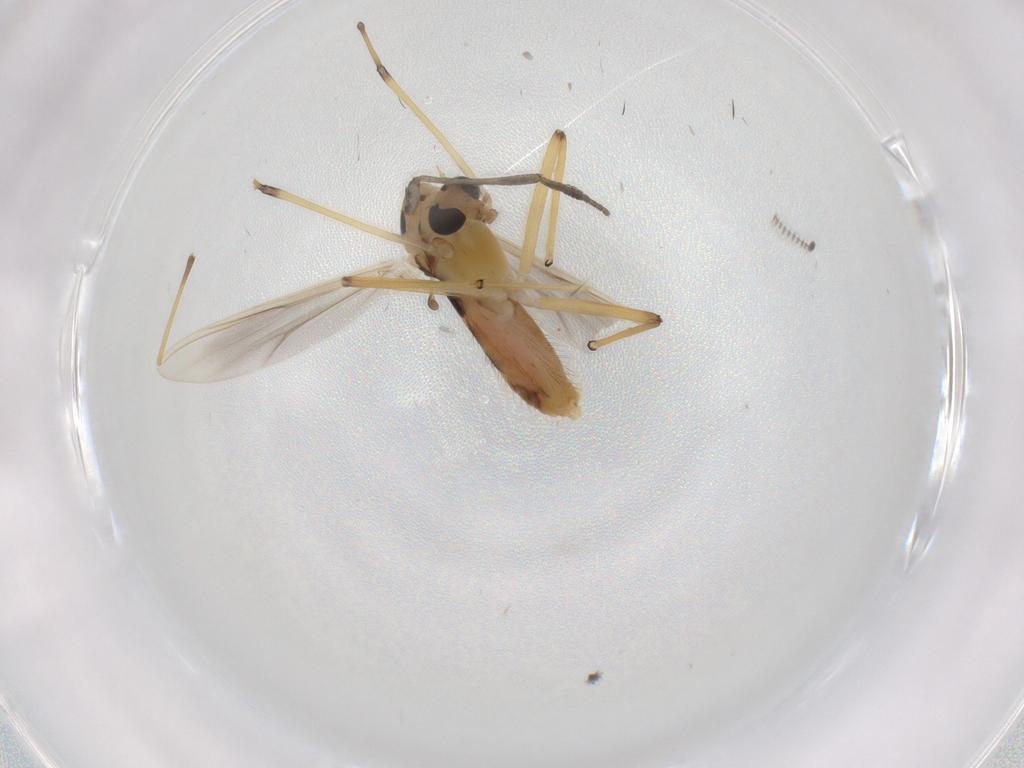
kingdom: Animalia
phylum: Arthropoda
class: Insecta
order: Diptera
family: Chironomidae
